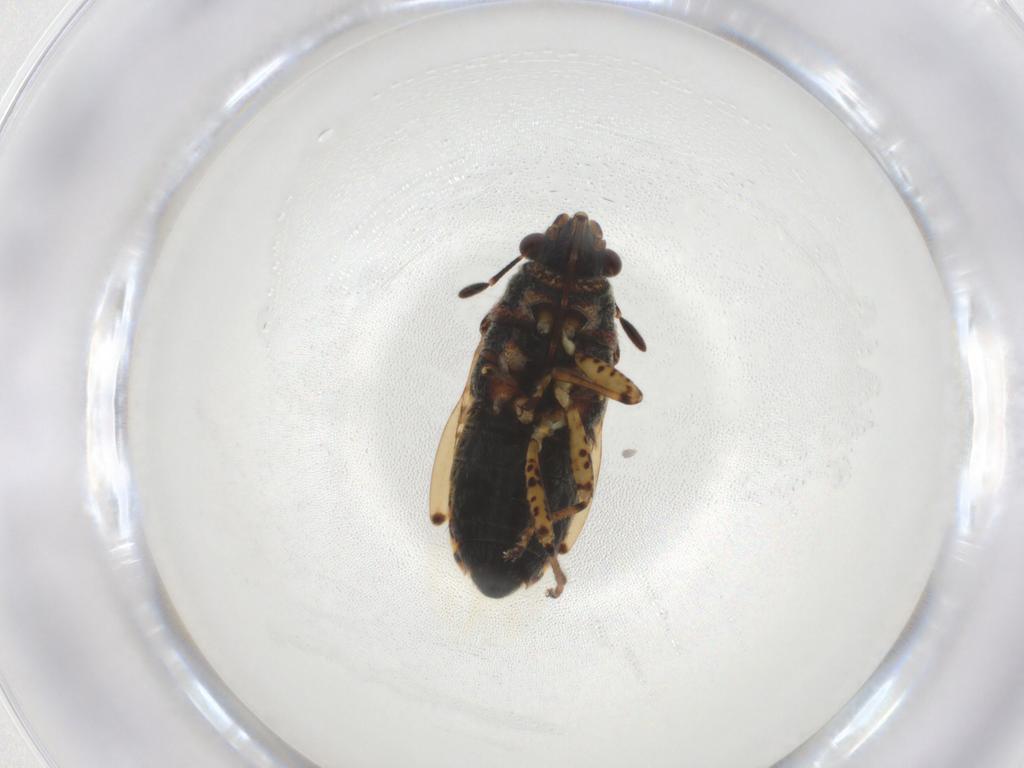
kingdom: Animalia
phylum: Arthropoda
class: Insecta
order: Hemiptera
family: Lygaeidae
